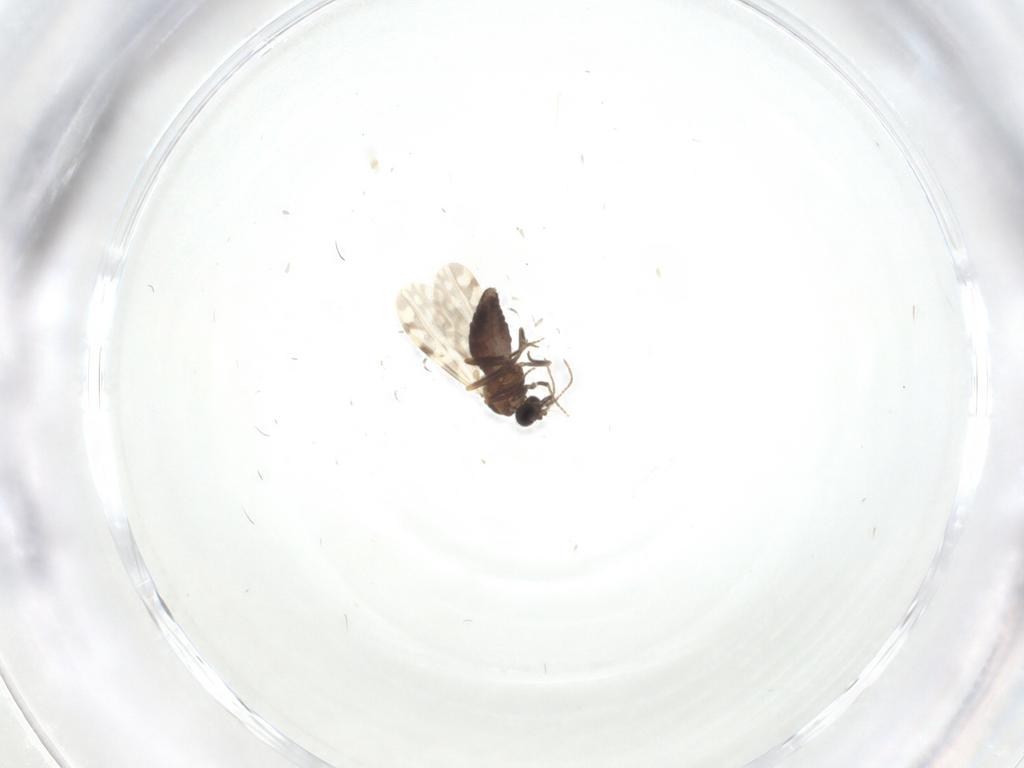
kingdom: Animalia
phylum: Arthropoda
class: Insecta
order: Diptera
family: Ceratopogonidae
